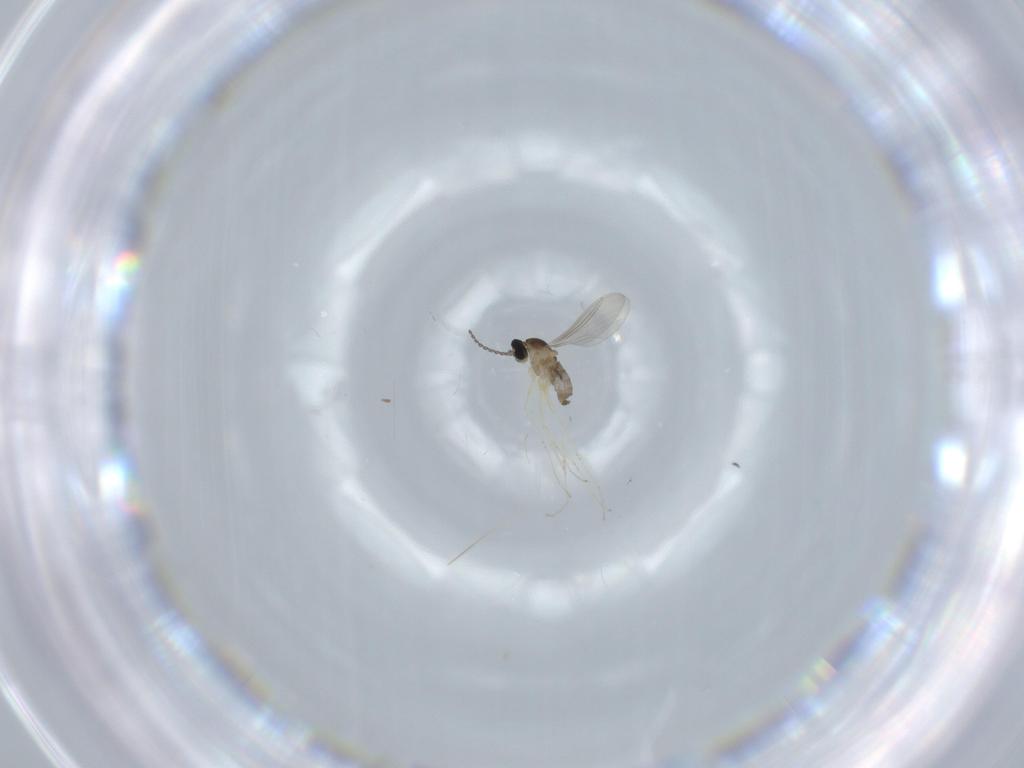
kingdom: Animalia
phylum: Arthropoda
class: Insecta
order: Diptera
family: Cecidomyiidae
